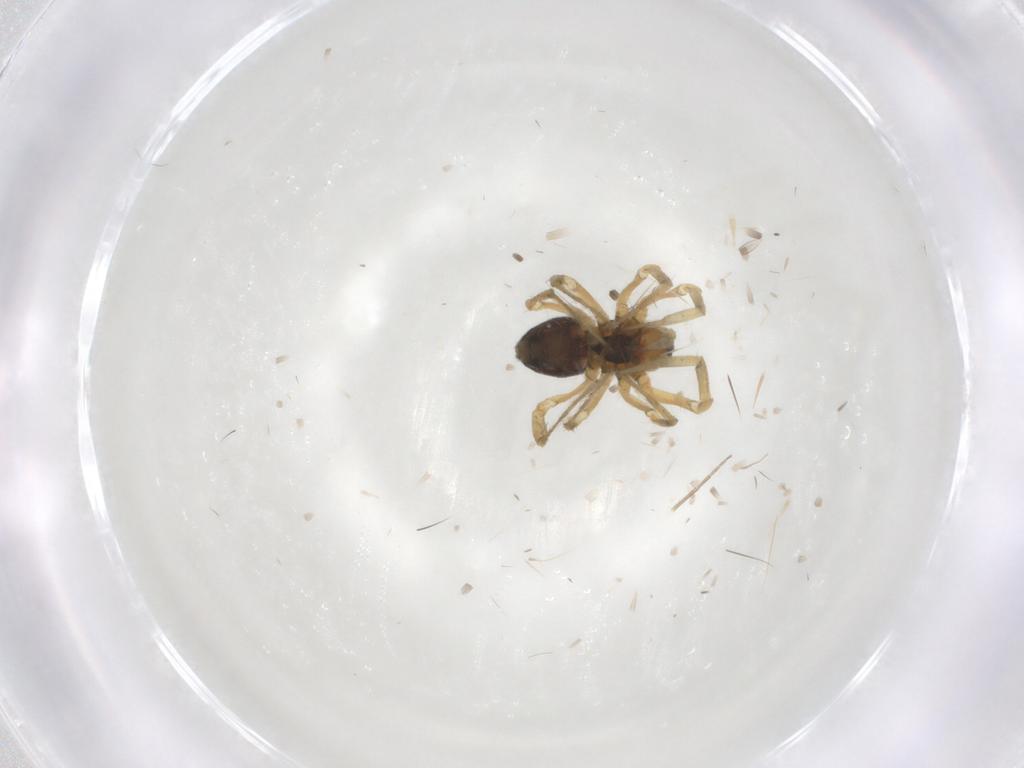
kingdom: Animalia
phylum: Arthropoda
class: Arachnida
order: Araneae
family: Linyphiidae
